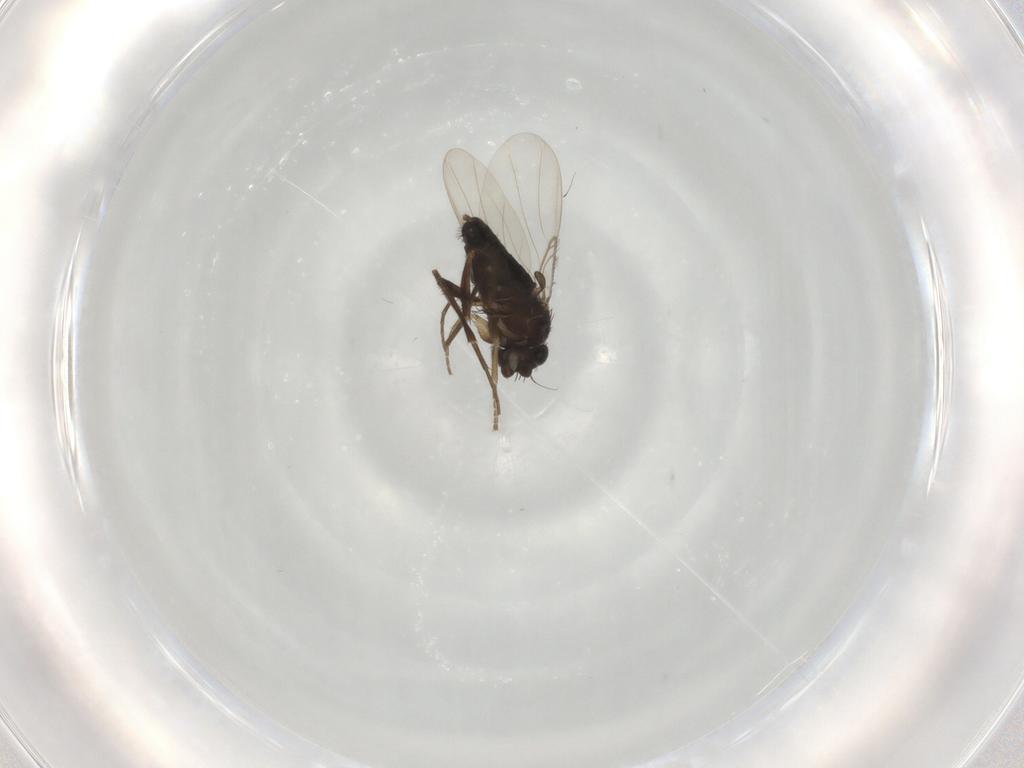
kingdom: Animalia
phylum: Arthropoda
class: Insecta
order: Diptera
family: Phoridae
